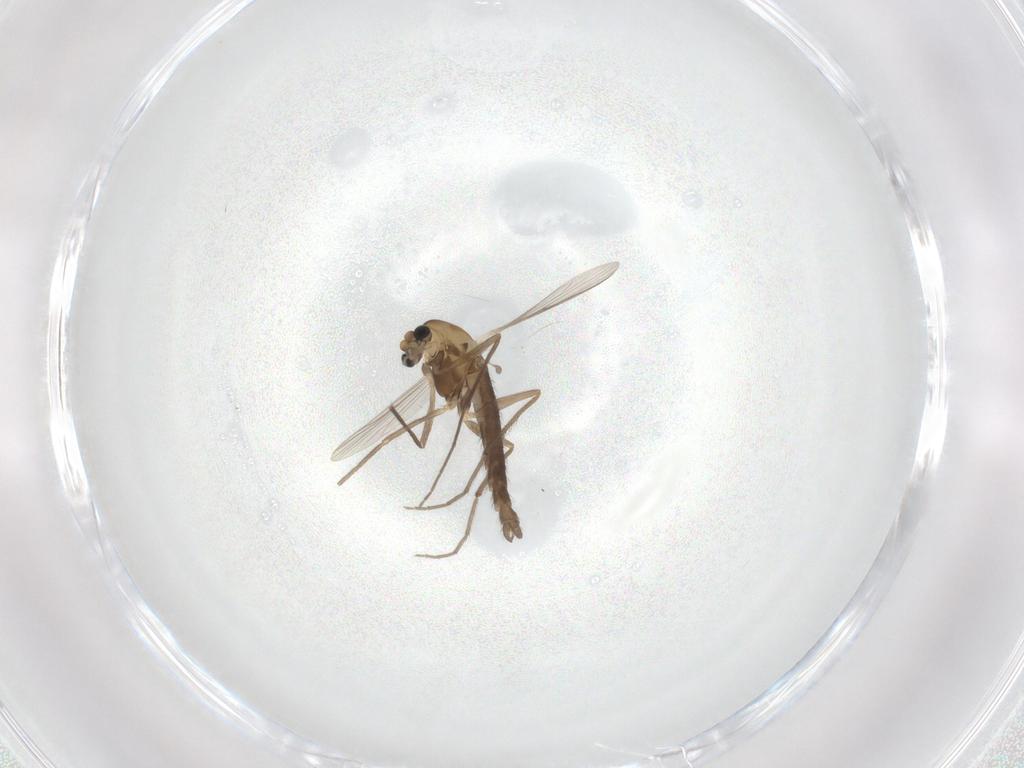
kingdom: Animalia
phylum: Arthropoda
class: Insecta
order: Diptera
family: Chironomidae
